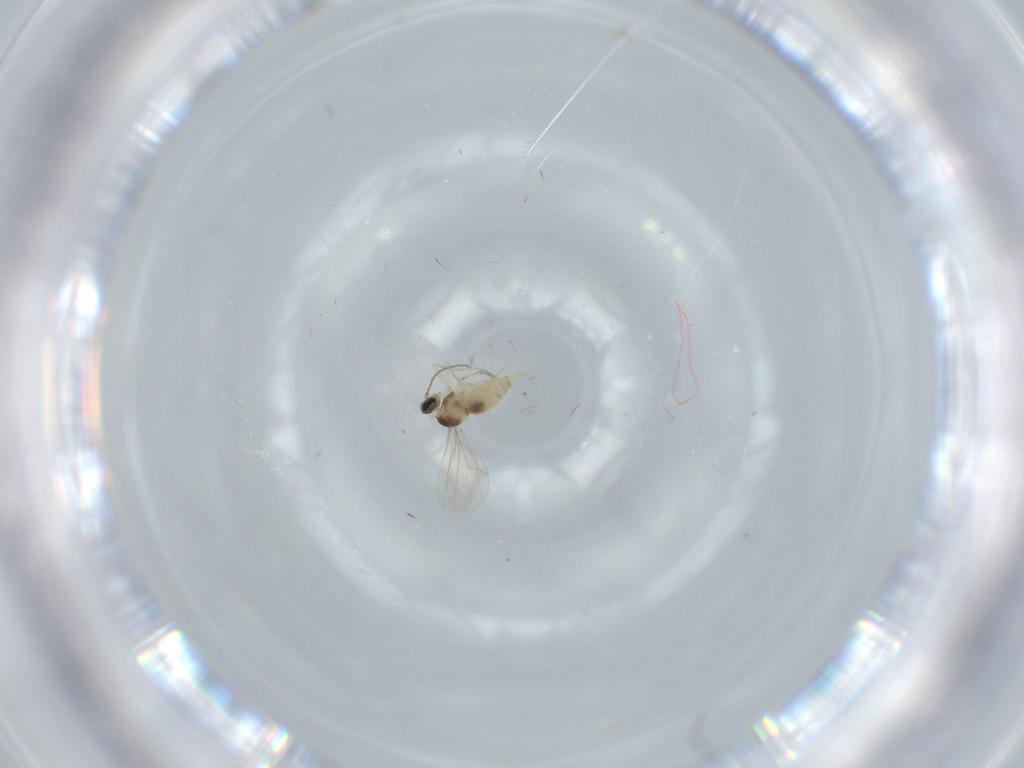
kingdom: Animalia
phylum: Arthropoda
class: Insecta
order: Diptera
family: Cecidomyiidae
